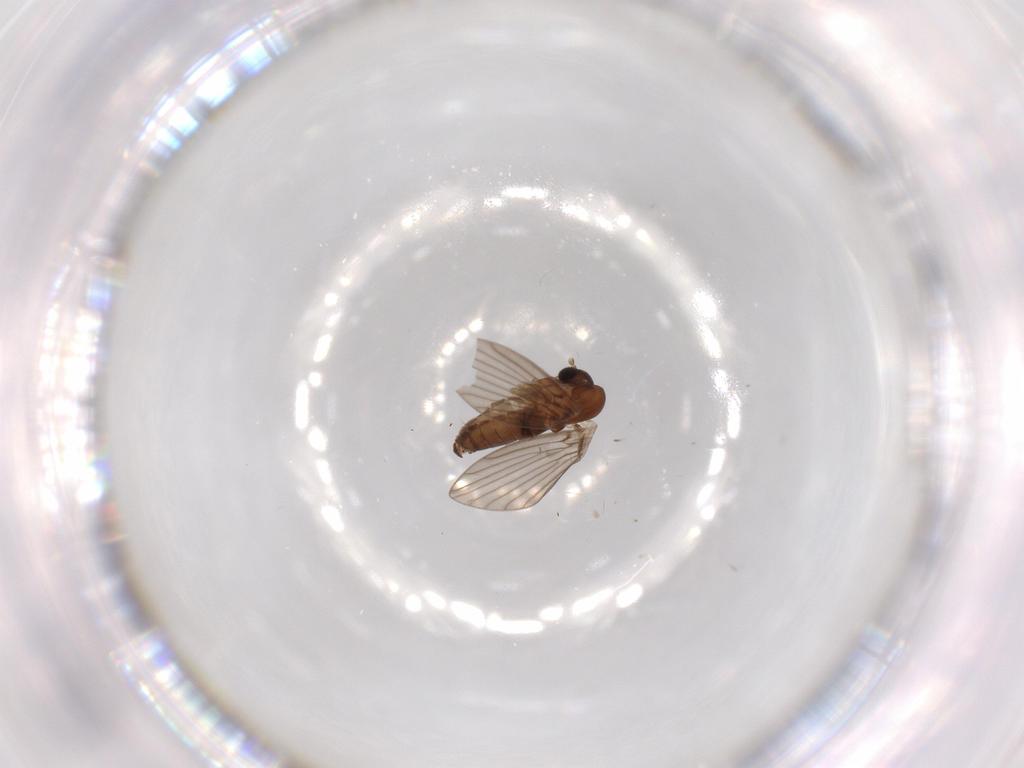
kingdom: Animalia
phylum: Arthropoda
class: Insecta
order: Diptera
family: Psychodidae
